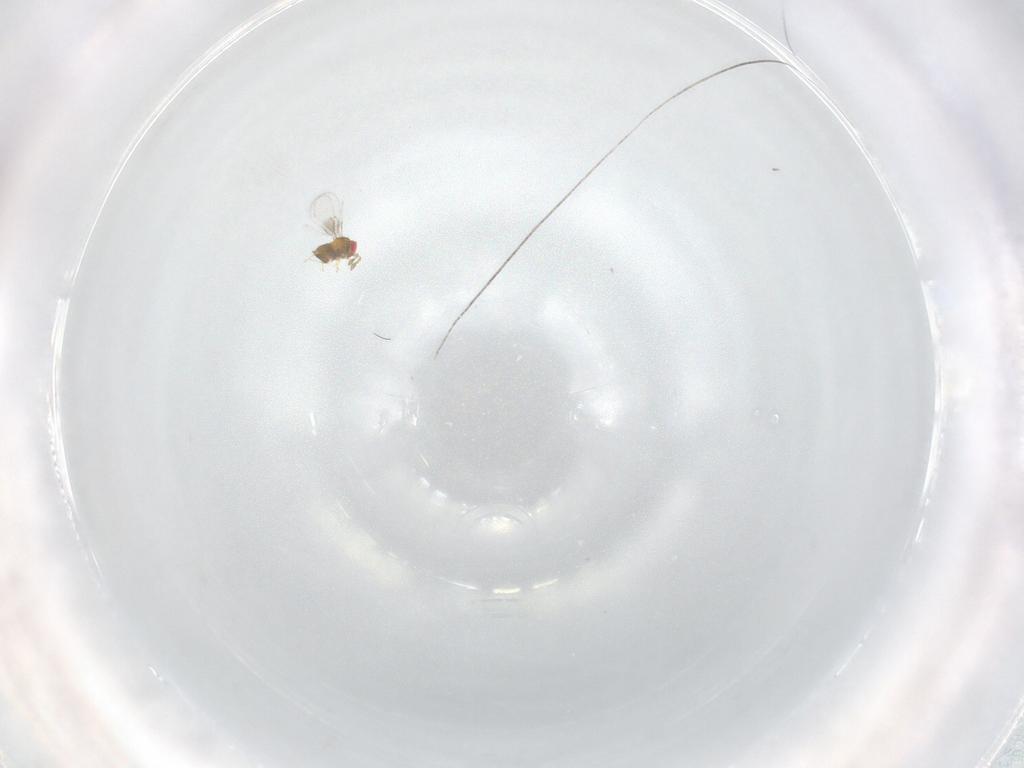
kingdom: Animalia
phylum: Arthropoda
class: Insecta
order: Hymenoptera
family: Trichogrammatidae
